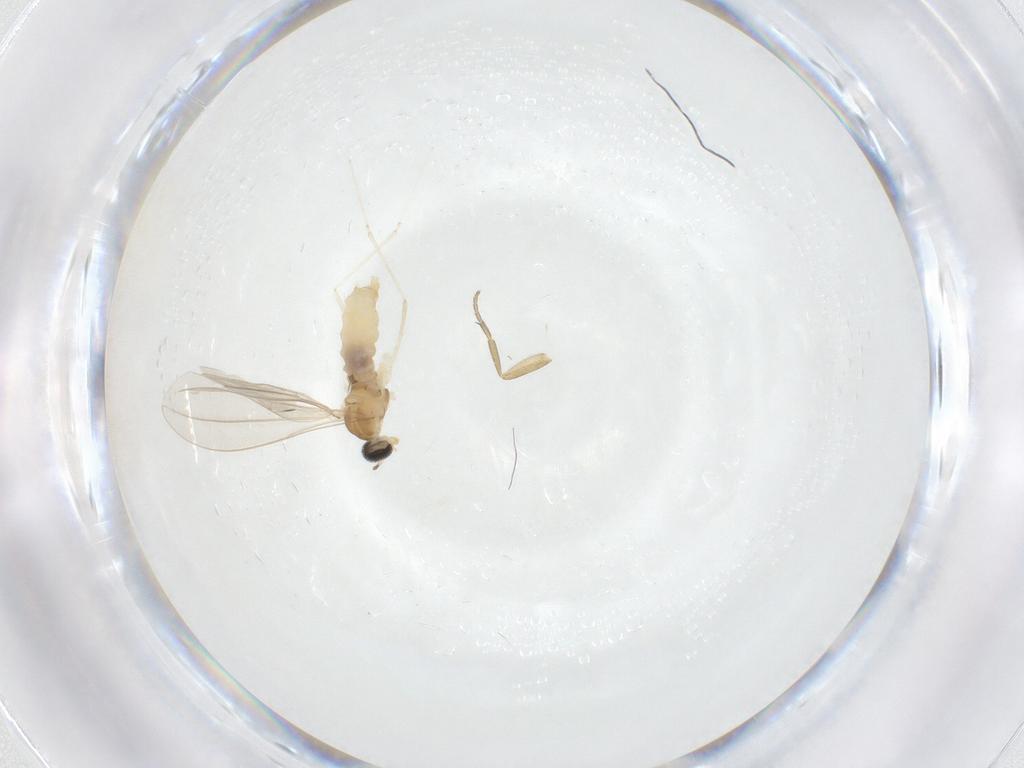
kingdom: Animalia
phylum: Arthropoda
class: Insecta
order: Diptera
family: Phoridae
